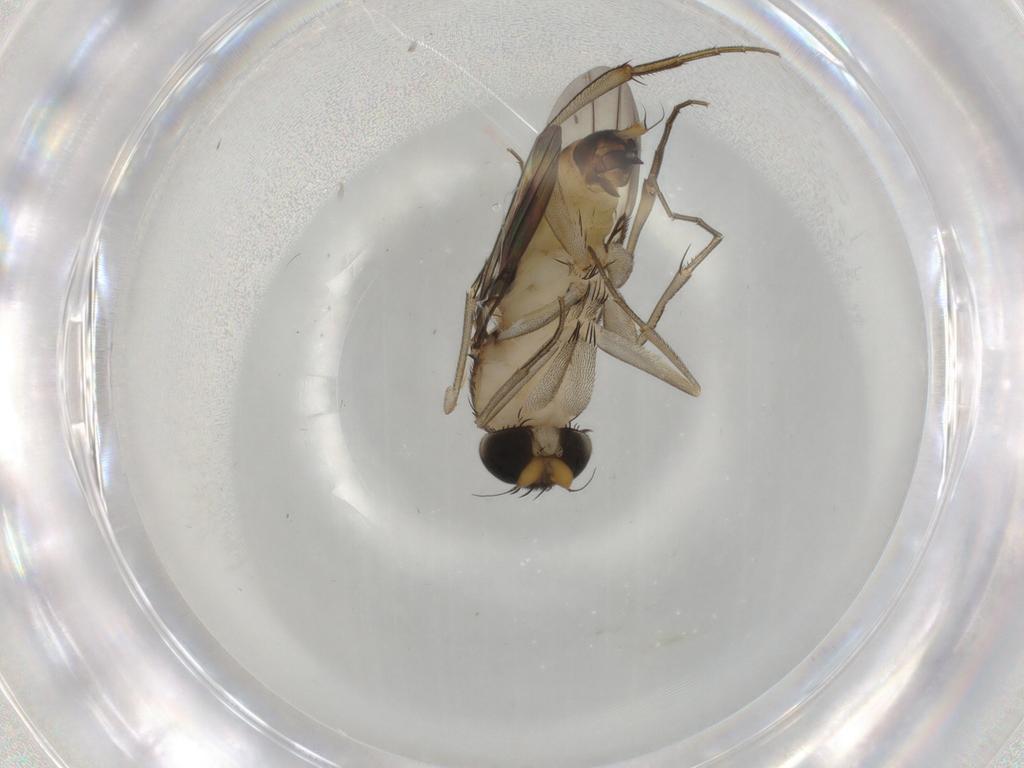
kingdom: Animalia
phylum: Arthropoda
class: Insecta
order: Diptera
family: Phoridae
